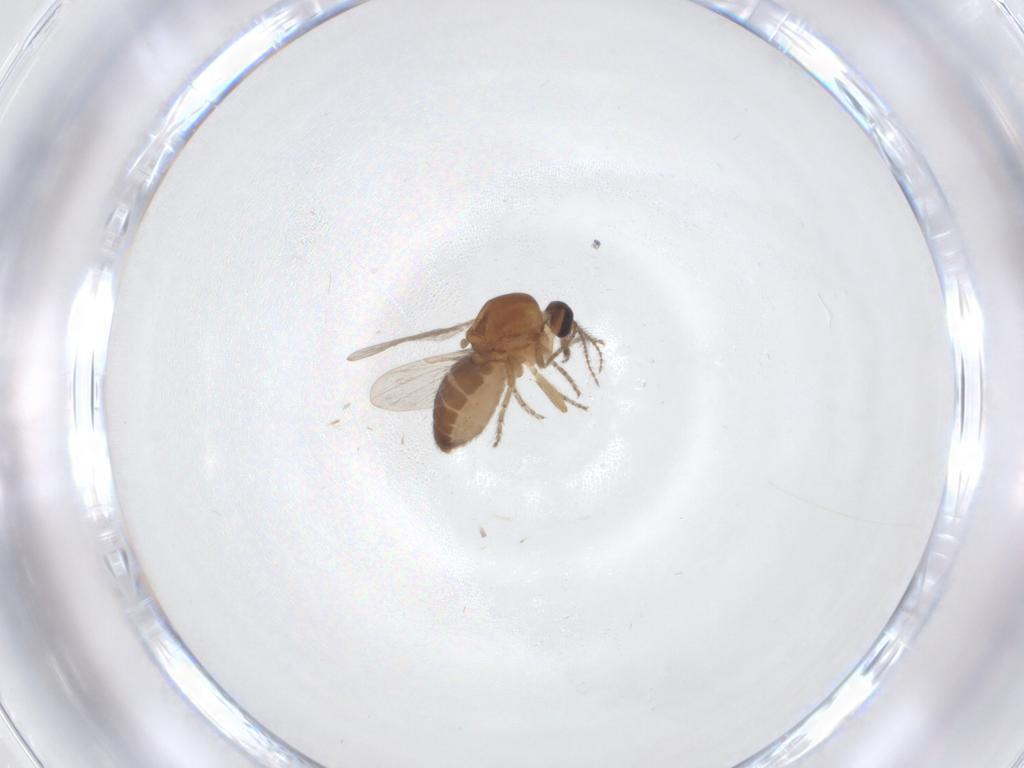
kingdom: Animalia
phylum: Arthropoda
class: Insecta
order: Diptera
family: Ceratopogonidae
